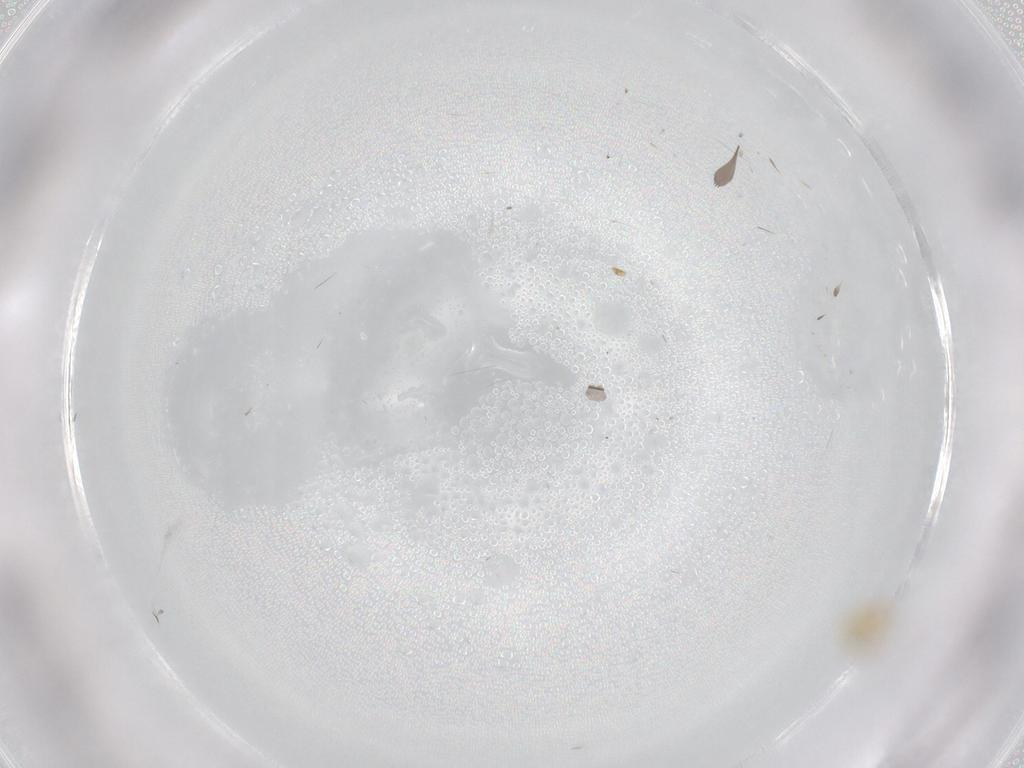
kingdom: Animalia
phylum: Arthropoda
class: Insecta
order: Hemiptera
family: Aleyrodidae
